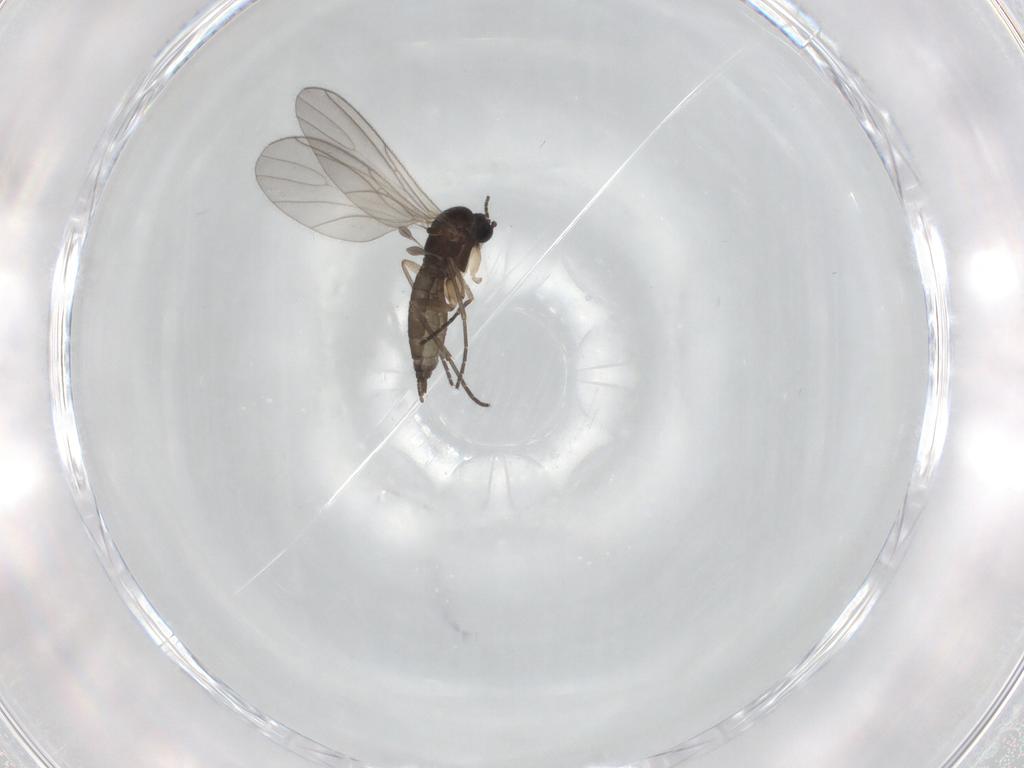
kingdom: Animalia
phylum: Arthropoda
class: Insecta
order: Diptera
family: Sciaridae
